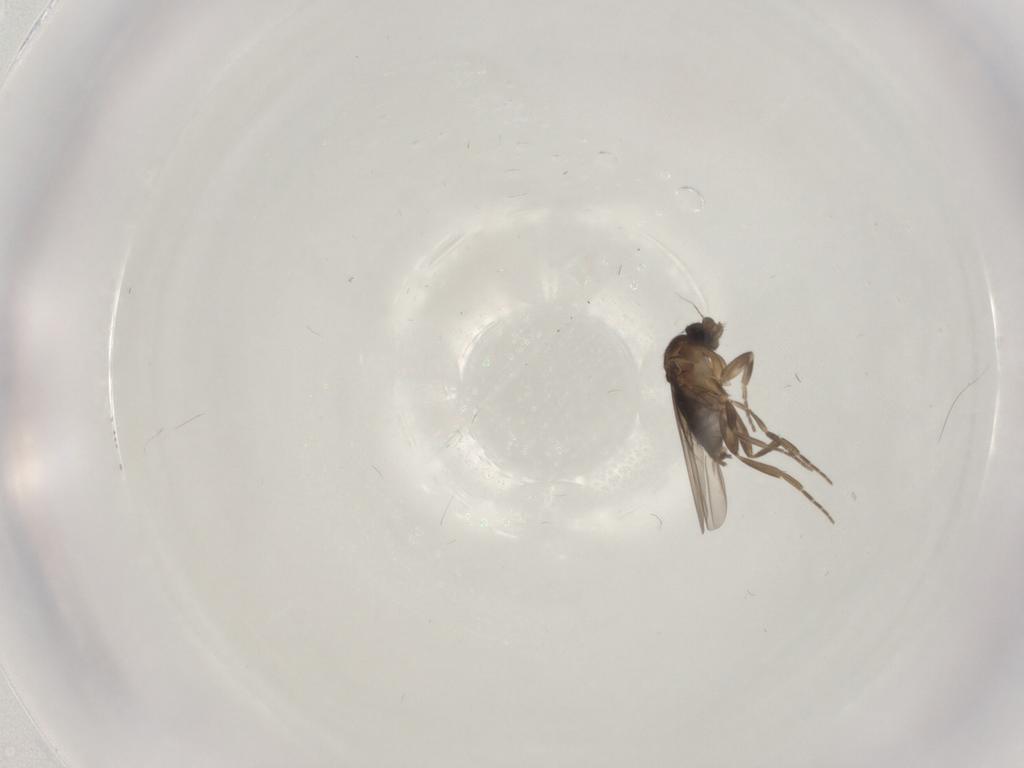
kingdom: Animalia
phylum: Arthropoda
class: Insecta
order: Diptera
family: Phoridae
